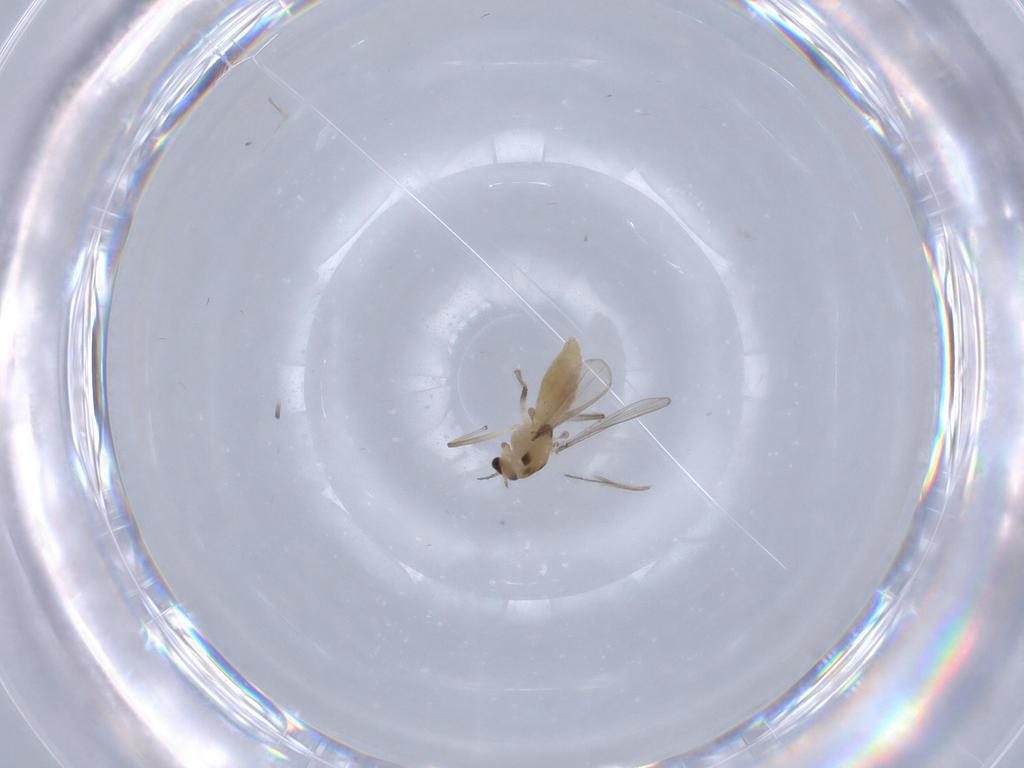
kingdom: Animalia
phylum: Arthropoda
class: Insecta
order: Diptera
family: Chironomidae
